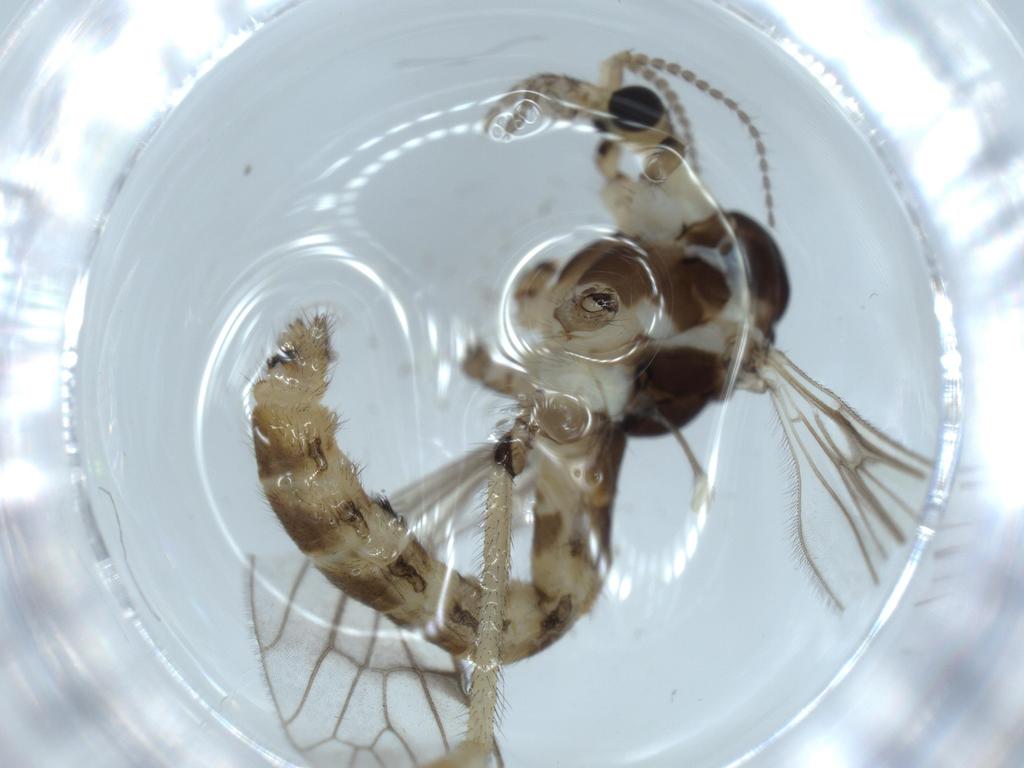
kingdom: Animalia
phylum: Arthropoda
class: Insecta
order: Diptera
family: Limoniidae
